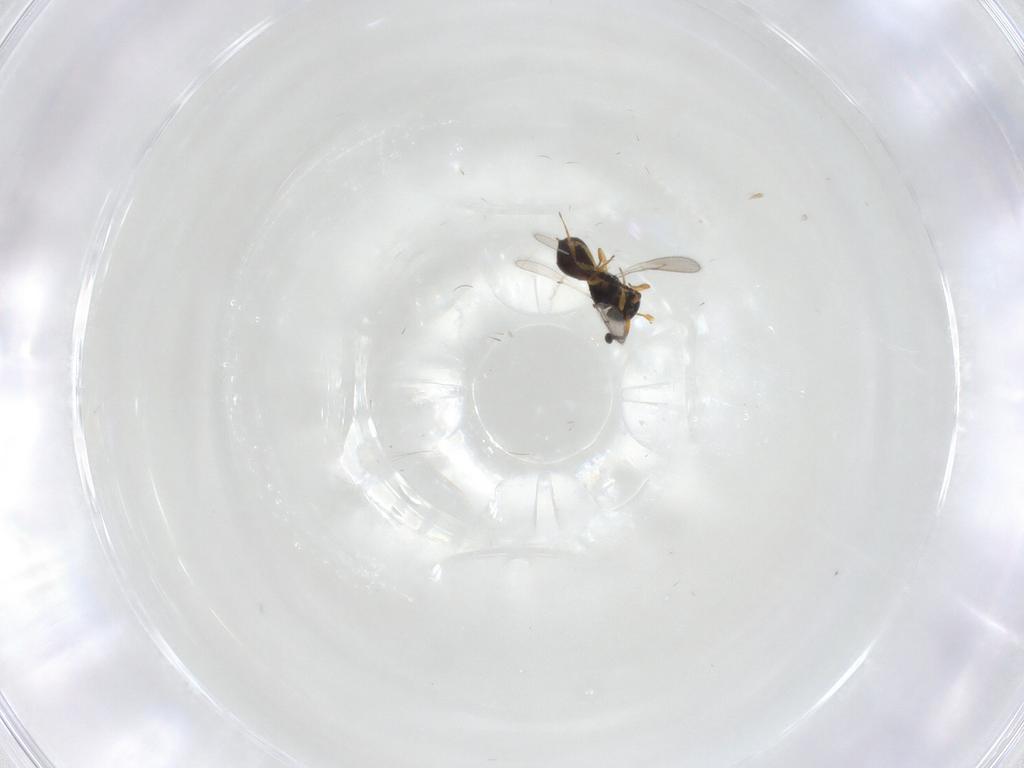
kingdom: Animalia
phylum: Arthropoda
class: Insecta
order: Hymenoptera
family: Scelionidae
